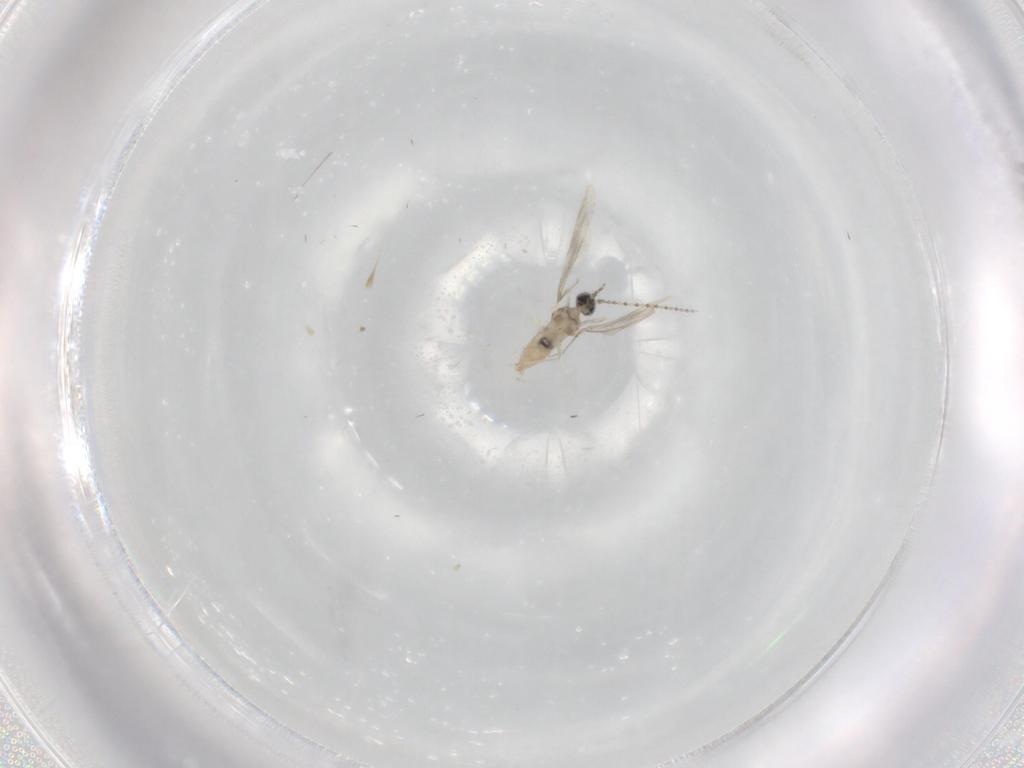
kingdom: Animalia
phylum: Arthropoda
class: Insecta
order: Diptera
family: Cecidomyiidae
